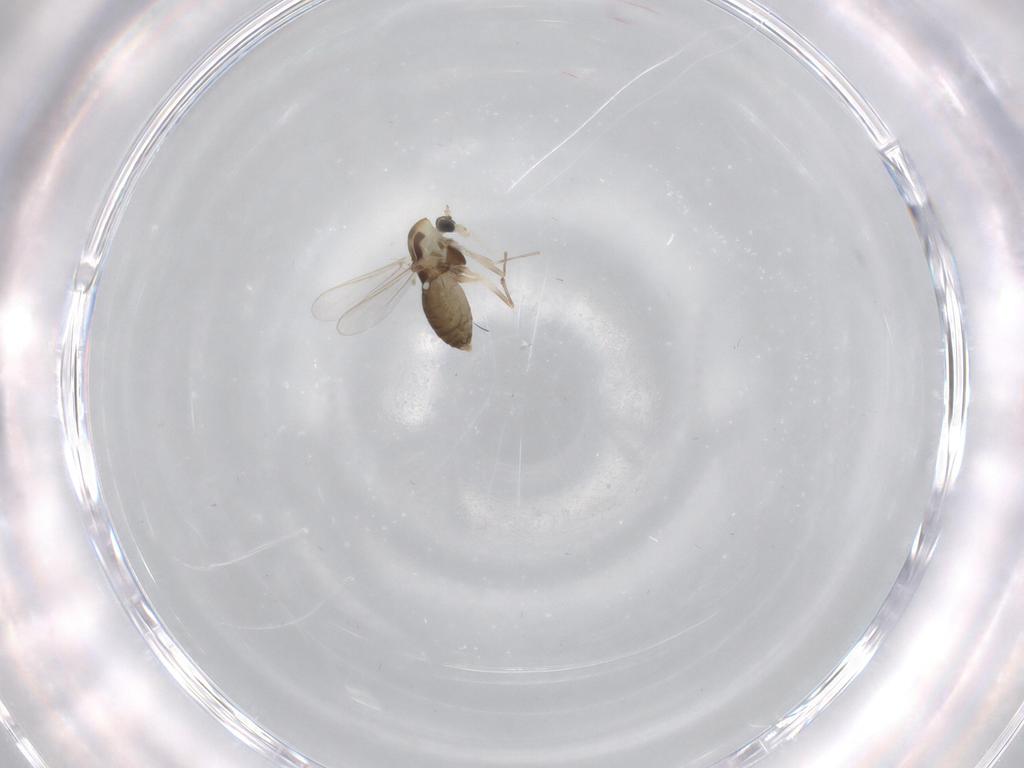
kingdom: Animalia
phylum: Arthropoda
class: Insecta
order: Diptera
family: Chironomidae
